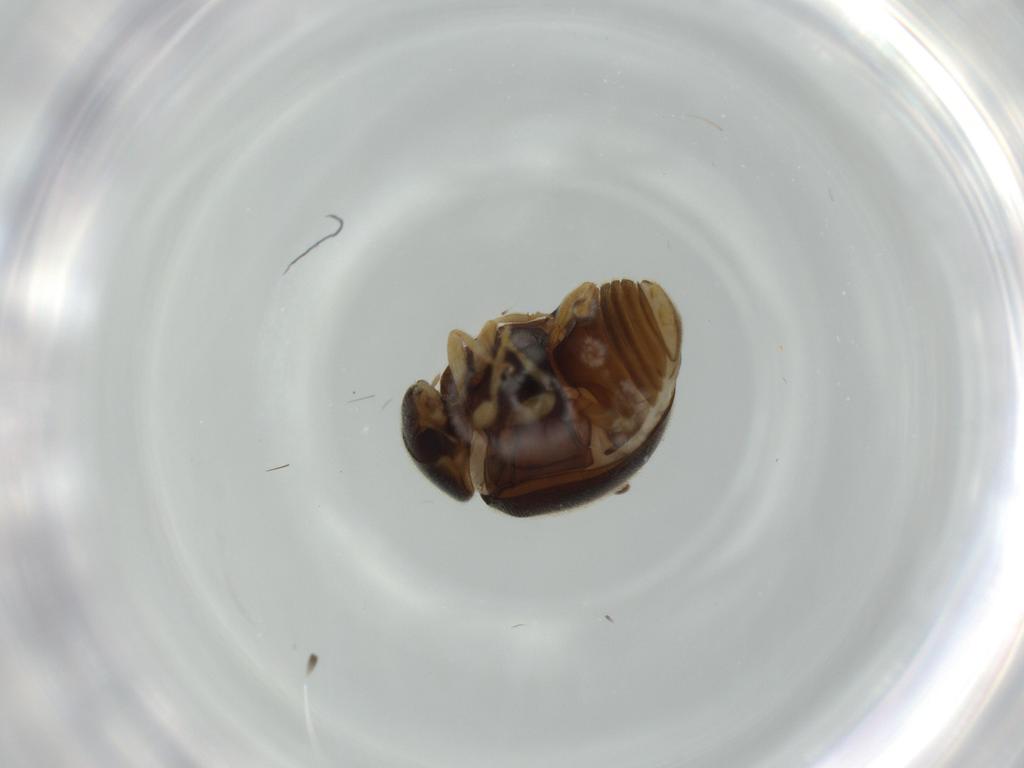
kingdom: Animalia
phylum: Arthropoda
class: Insecta
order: Coleoptera
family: Coccinellidae
